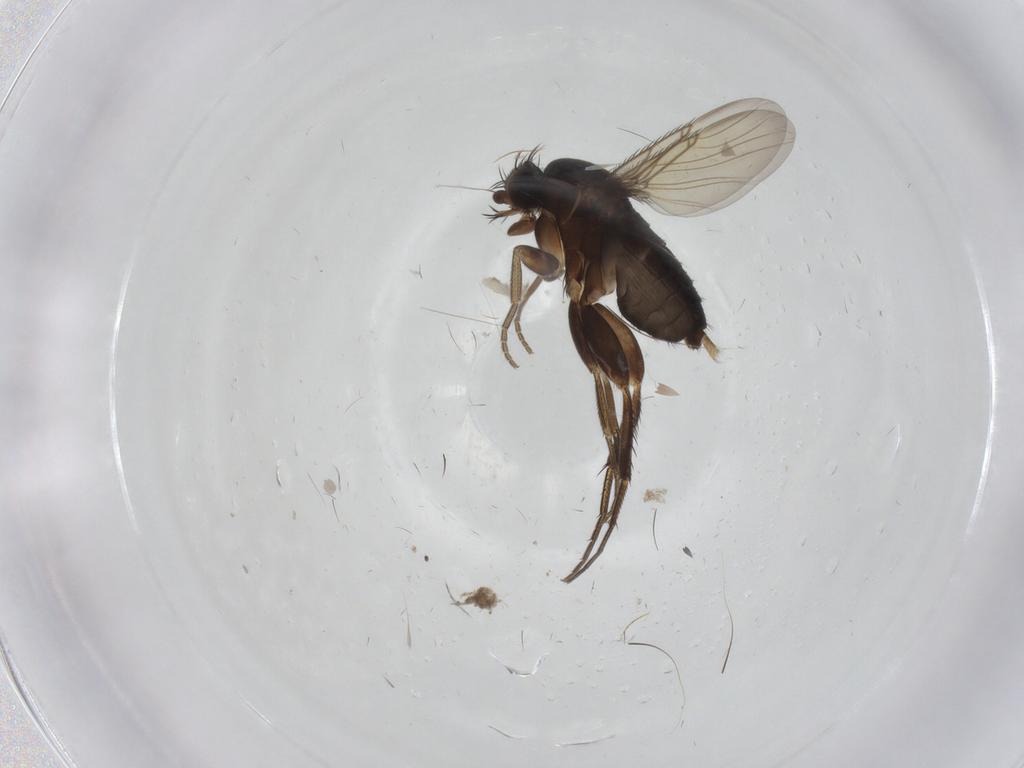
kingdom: Animalia
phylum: Arthropoda
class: Insecta
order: Diptera
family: Phoridae
